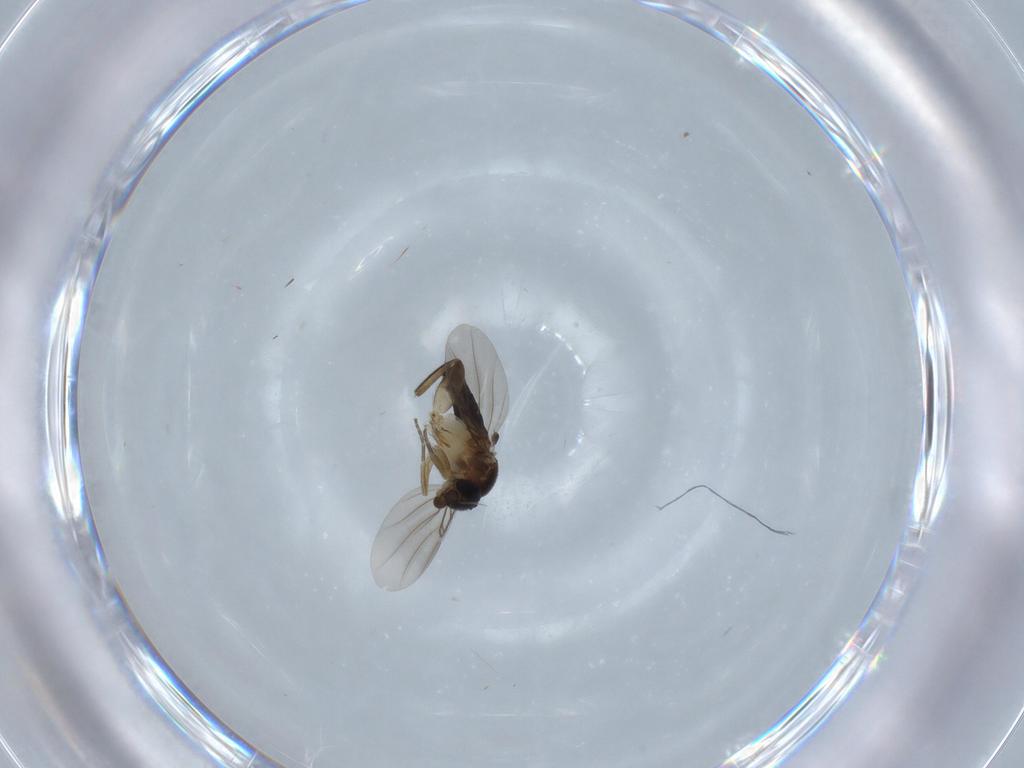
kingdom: Animalia
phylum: Arthropoda
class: Insecta
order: Diptera
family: Phoridae
